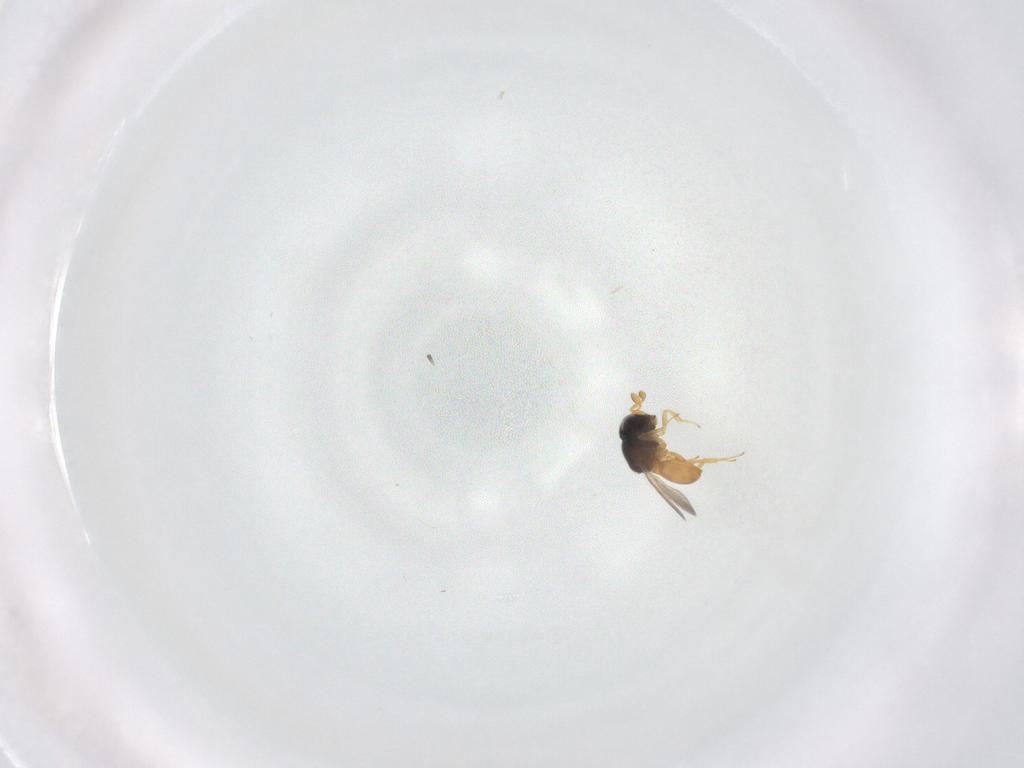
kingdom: Animalia
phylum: Arthropoda
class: Insecta
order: Hymenoptera
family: Scelionidae
